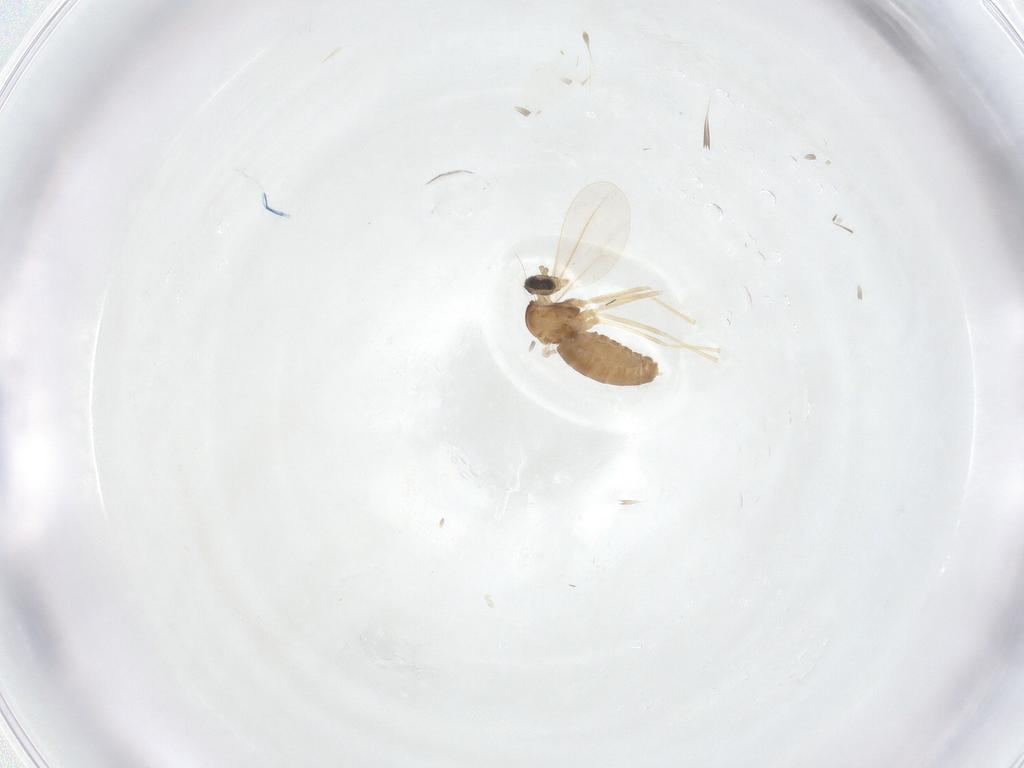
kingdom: Animalia
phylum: Arthropoda
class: Insecta
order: Diptera
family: Cecidomyiidae
